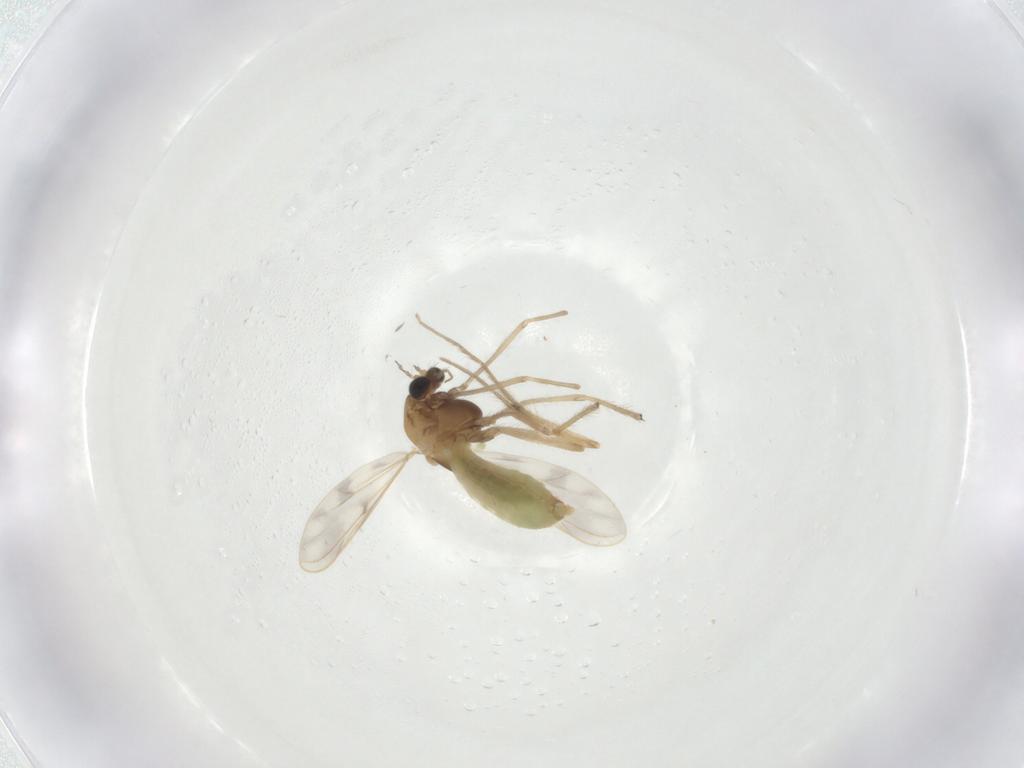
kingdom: Animalia
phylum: Arthropoda
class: Insecta
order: Diptera
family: Chironomidae
